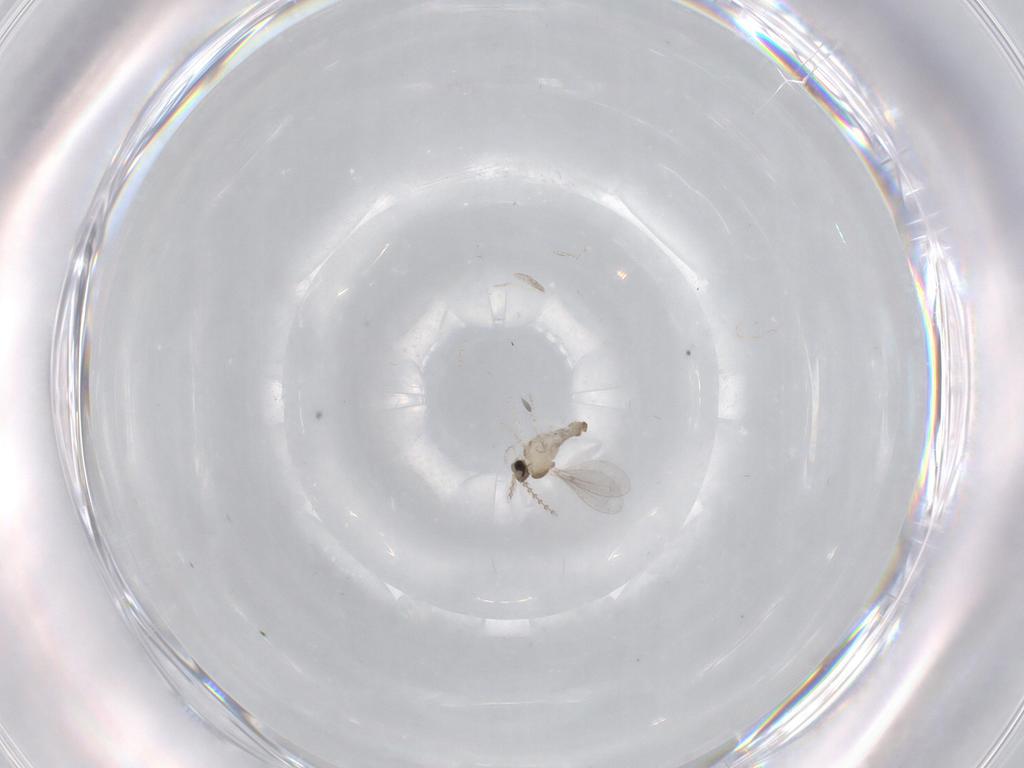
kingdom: Animalia
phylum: Arthropoda
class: Insecta
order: Diptera
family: Cecidomyiidae
